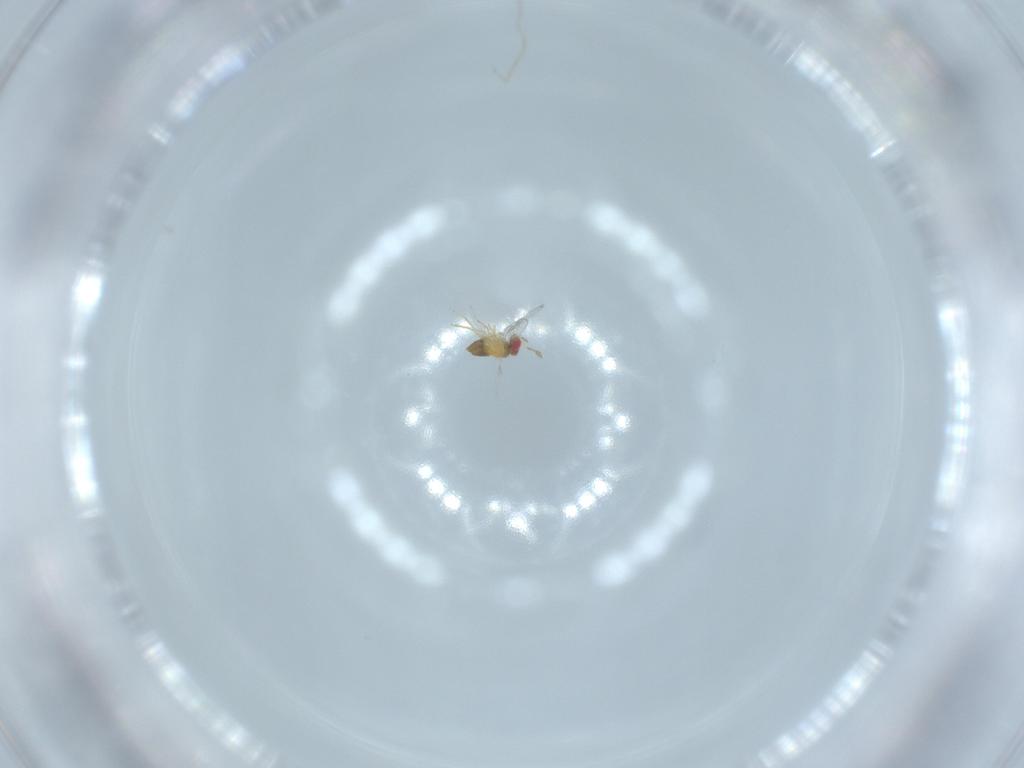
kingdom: Animalia
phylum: Arthropoda
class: Insecta
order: Hymenoptera
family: Trichogrammatidae
